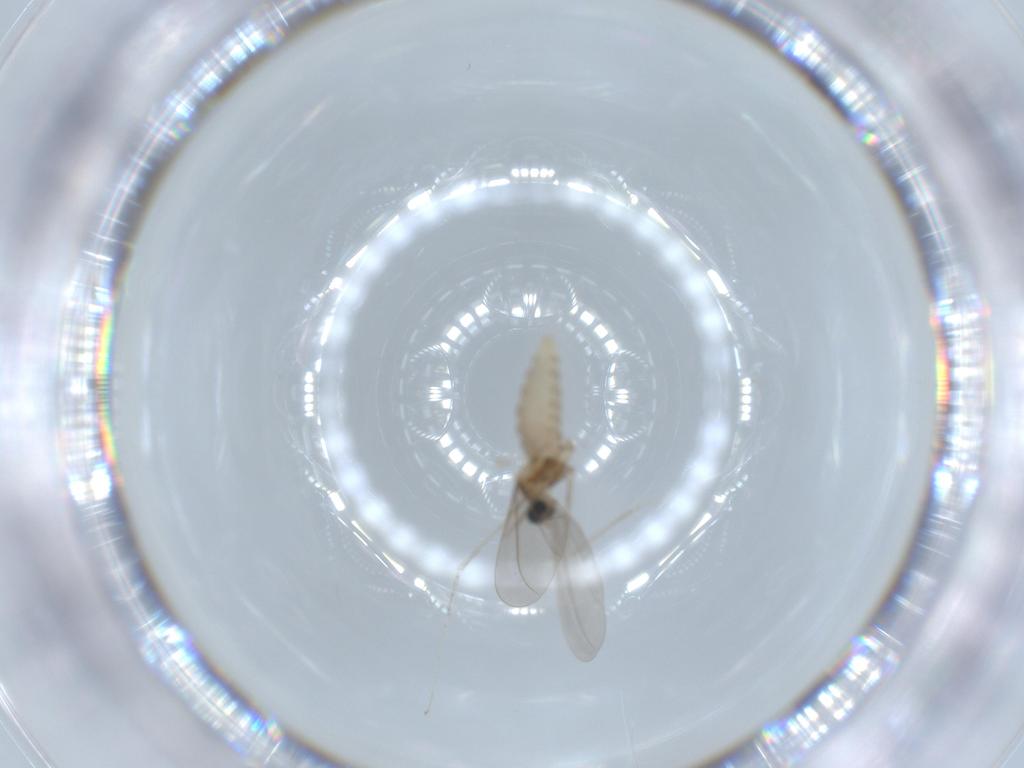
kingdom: Animalia
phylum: Arthropoda
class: Insecta
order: Diptera
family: Cecidomyiidae
